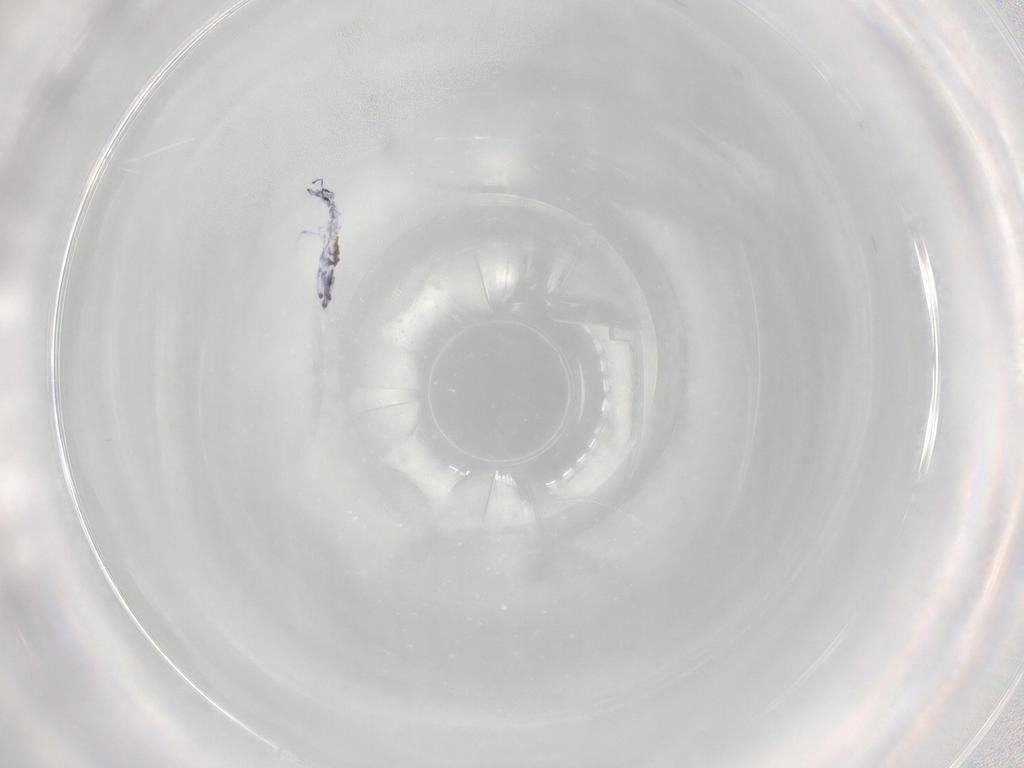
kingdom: Animalia
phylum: Arthropoda
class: Collembola
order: Entomobryomorpha
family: Entomobryidae
